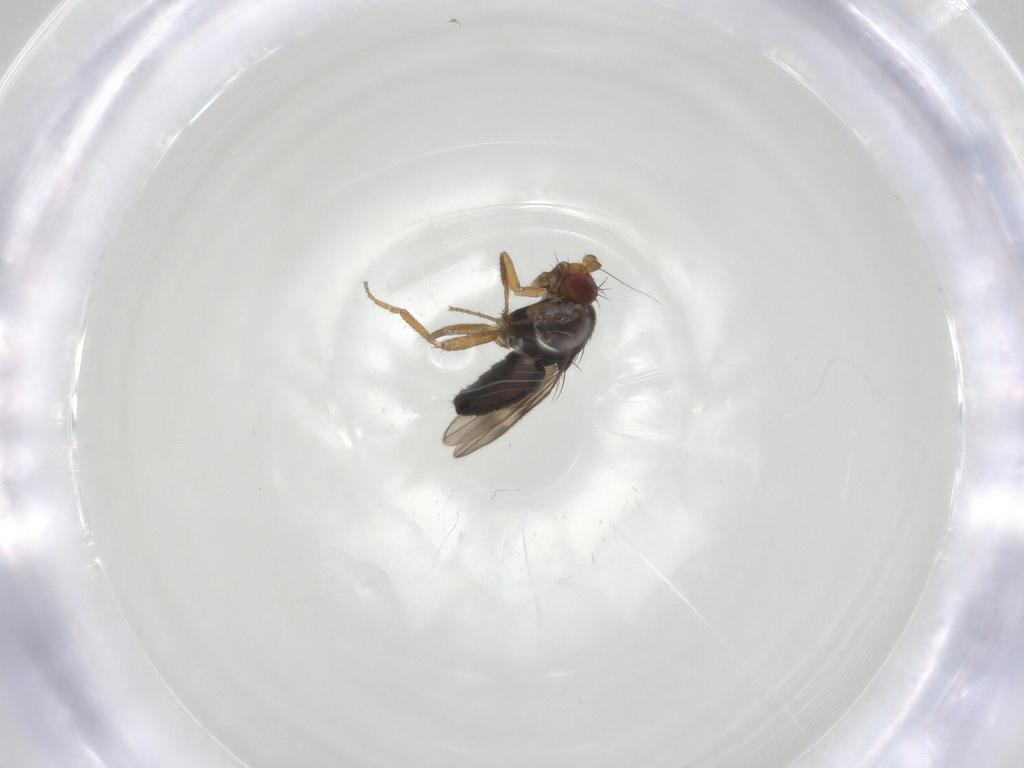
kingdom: Animalia
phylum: Arthropoda
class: Insecta
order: Diptera
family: Sphaeroceridae
